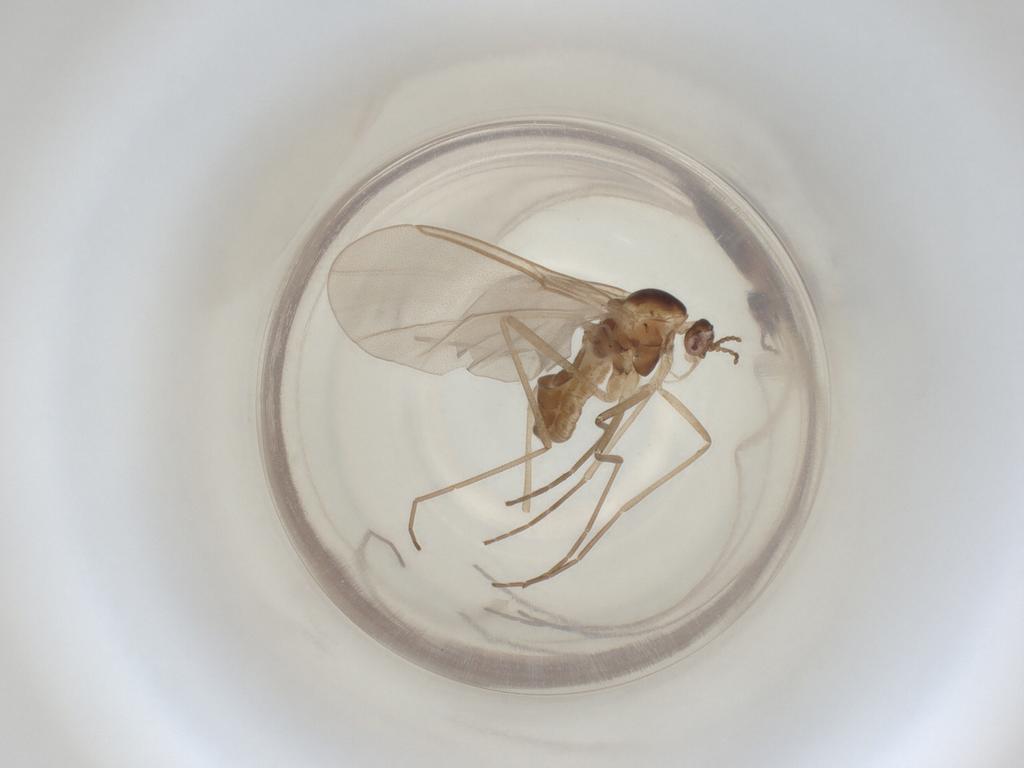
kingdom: Animalia
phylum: Arthropoda
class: Insecta
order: Diptera
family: Cecidomyiidae
